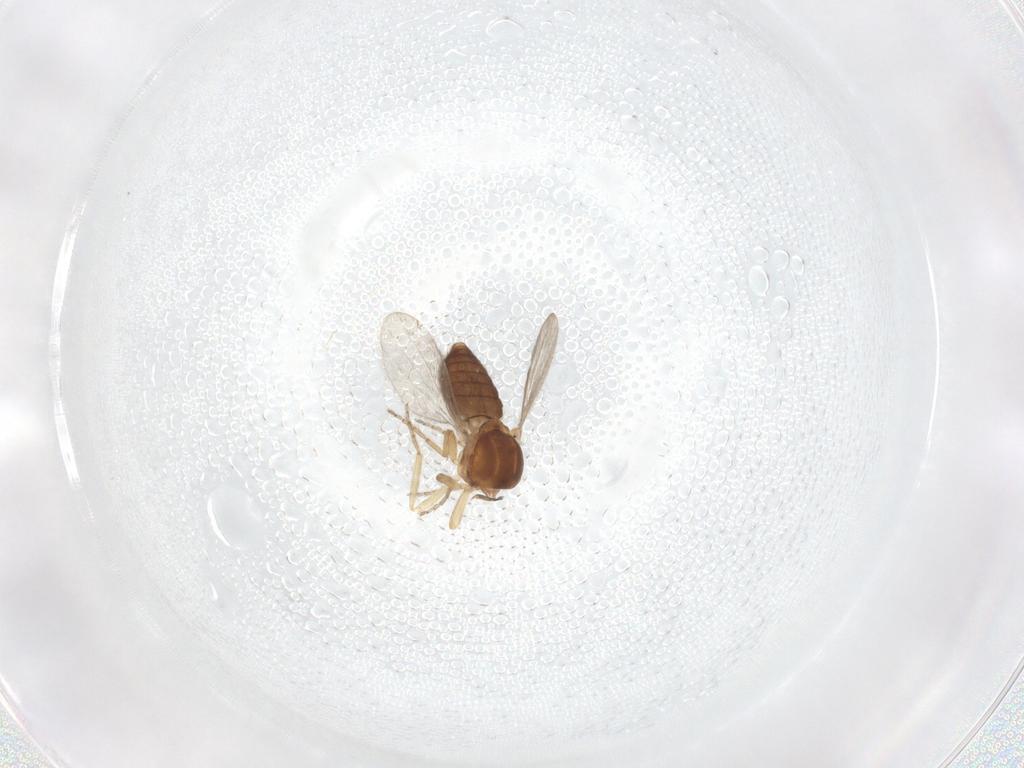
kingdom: Animalia
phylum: Arthropoda
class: Insecta
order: Diptera
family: Ceratopogonidae
